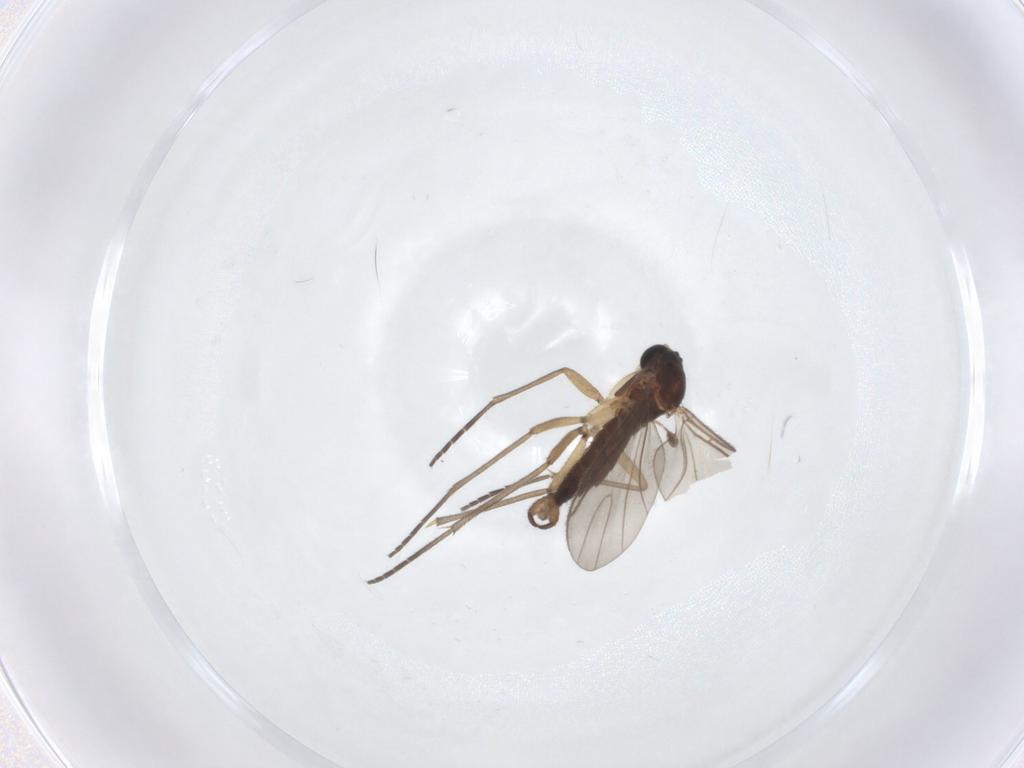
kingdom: Animalia
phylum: Arthropoda
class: Insecta
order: Diptera
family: Sciaridae
